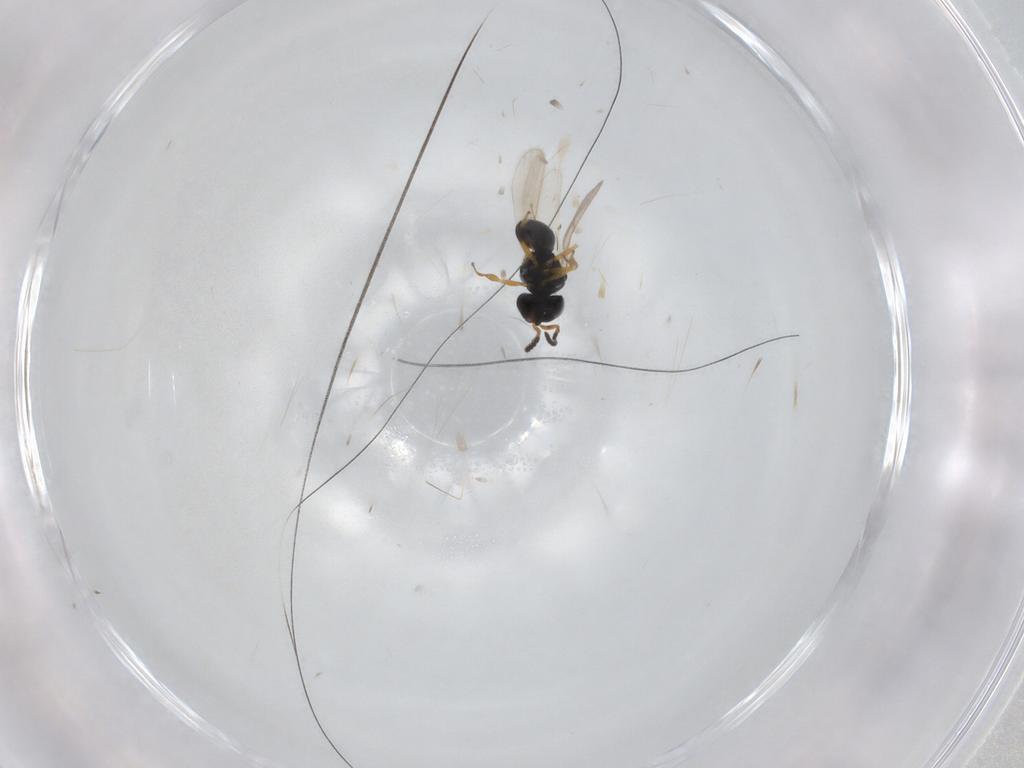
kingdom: Animalia
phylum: Arthropoda
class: Insecta
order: Hymenoptera
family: Scelionidae
